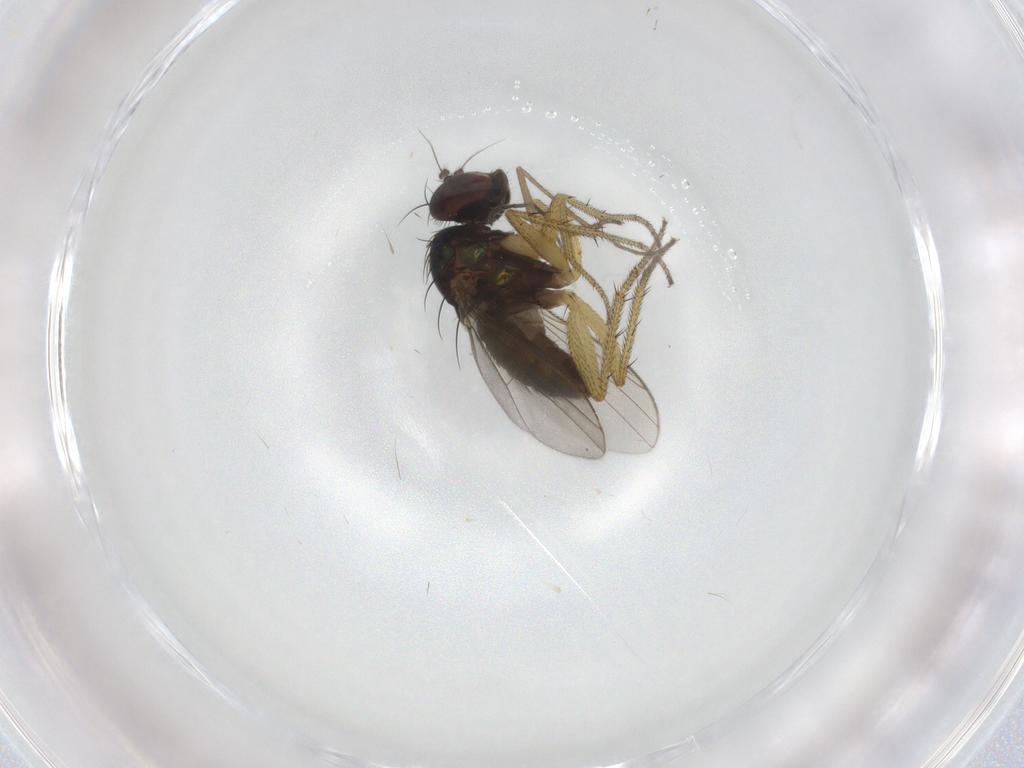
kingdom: Animalia
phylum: Arthropoda
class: Insecta
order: Diptera
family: Sciaridae
